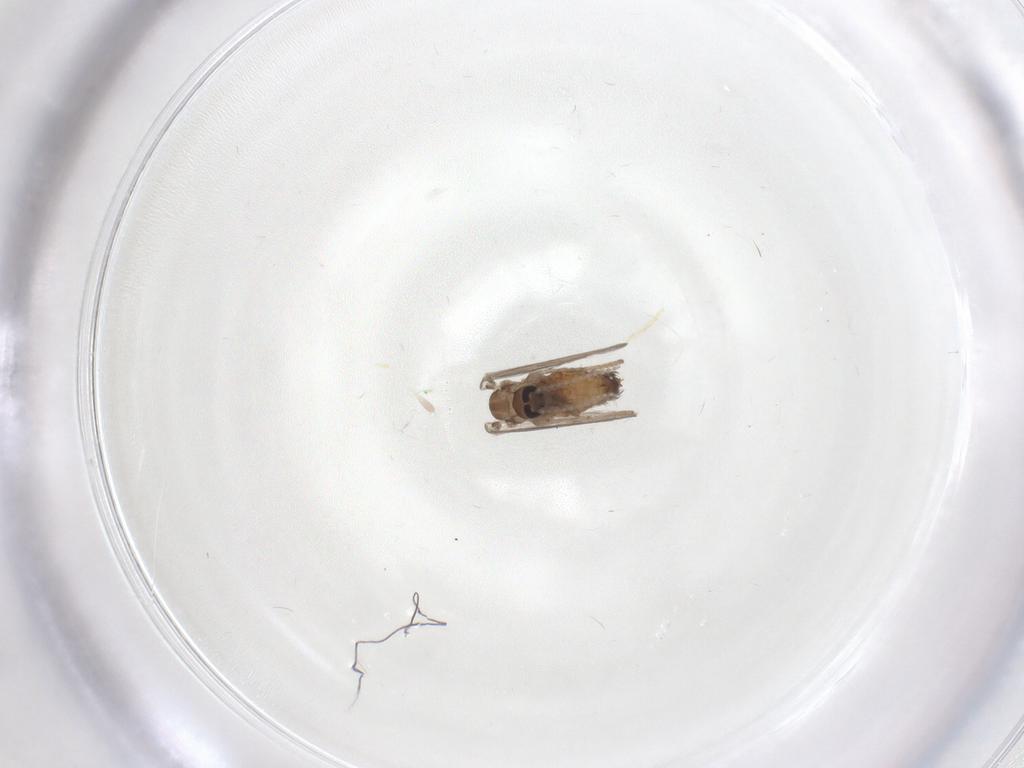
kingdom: Animalia
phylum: Arthropoda
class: Insecta
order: Diptera
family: Psychodidae
